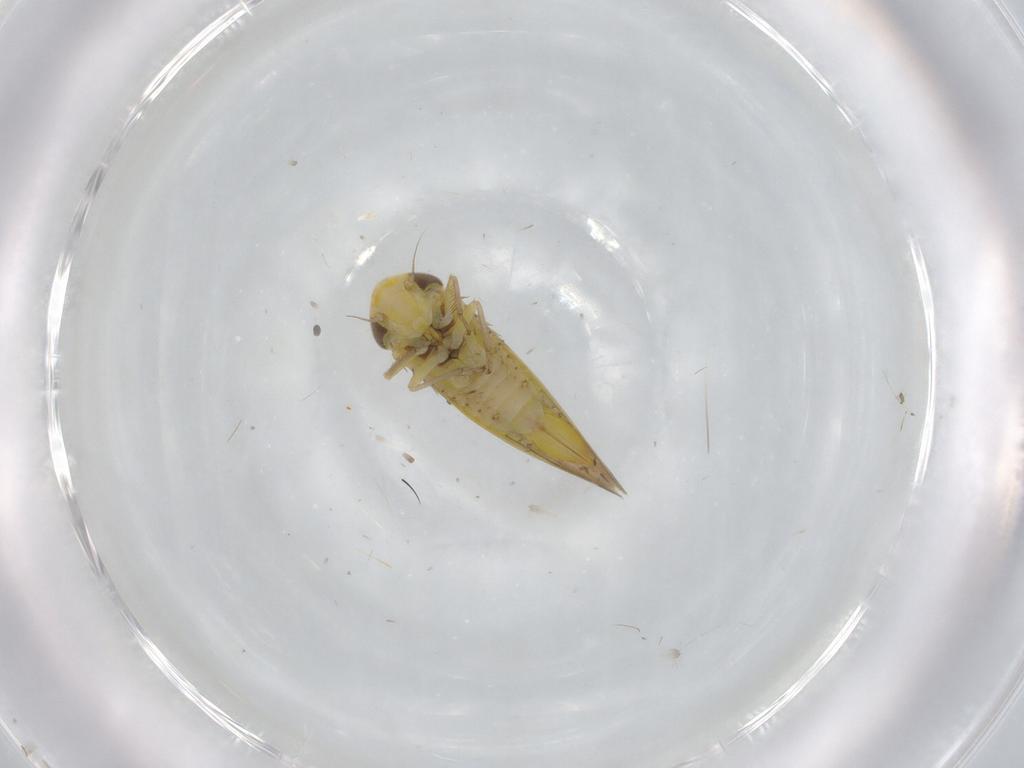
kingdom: Animalia
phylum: Arthropoda
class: Insecta
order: Hemiptera
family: Cicadellidae
